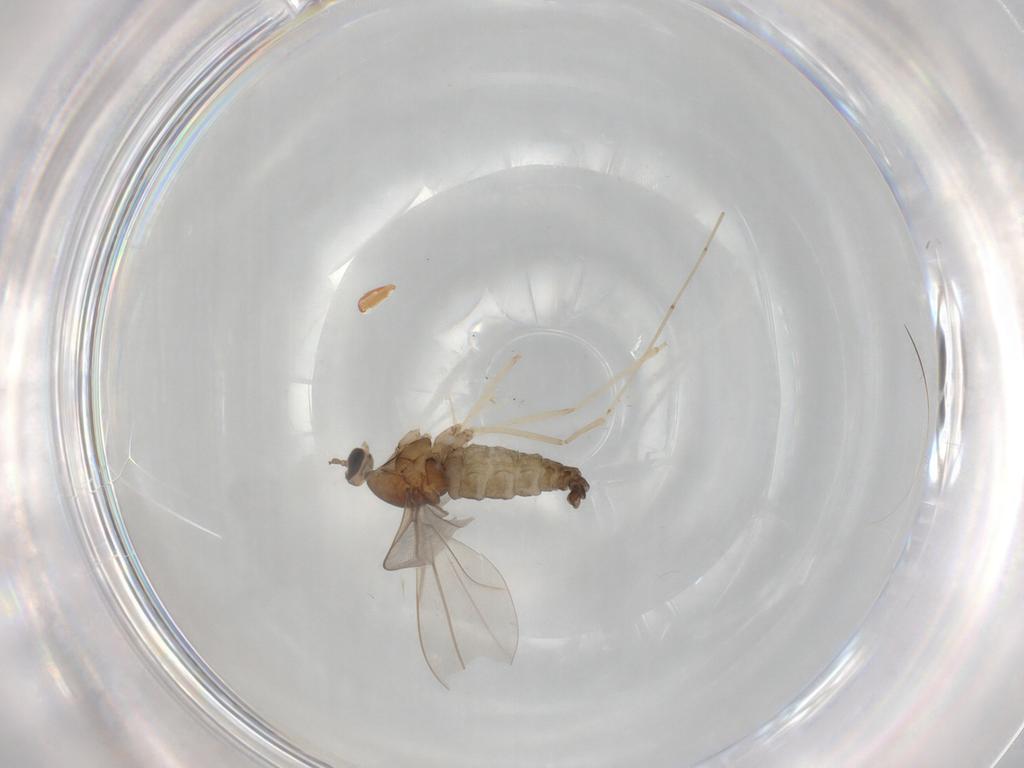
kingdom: Animalia
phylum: Arthropoda
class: Insecta
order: Diptera
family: Cecidomyiidae
